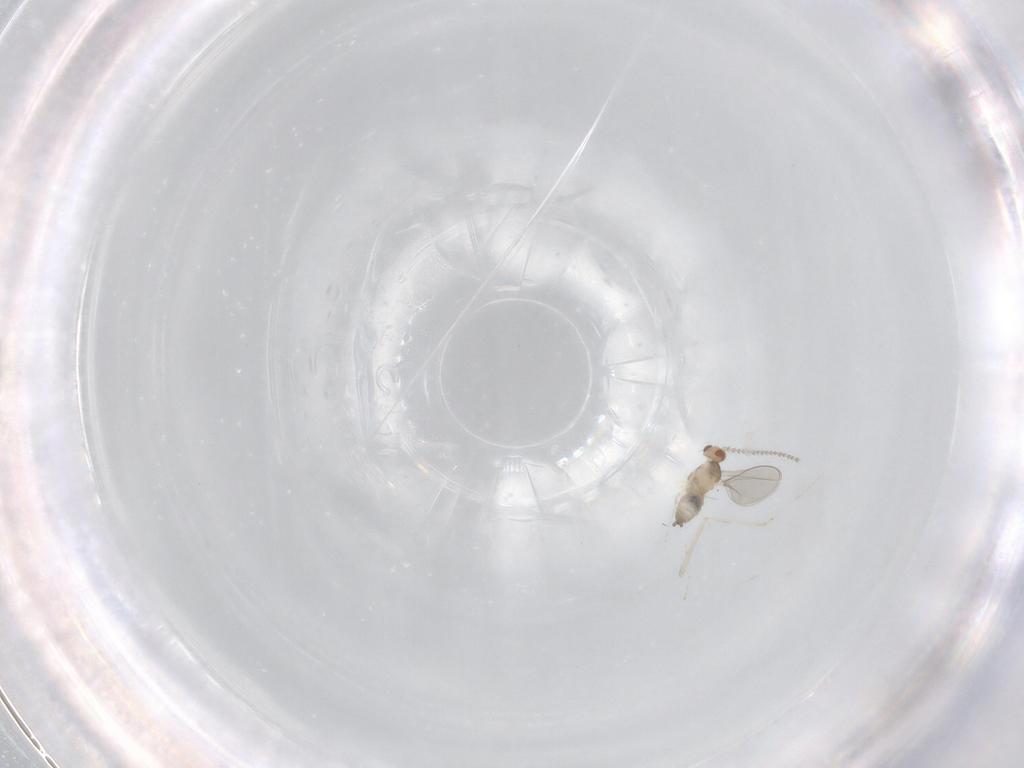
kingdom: Animalia
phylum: Arthropoda
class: Insecta
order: Diptera
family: Cecidomyiidae
